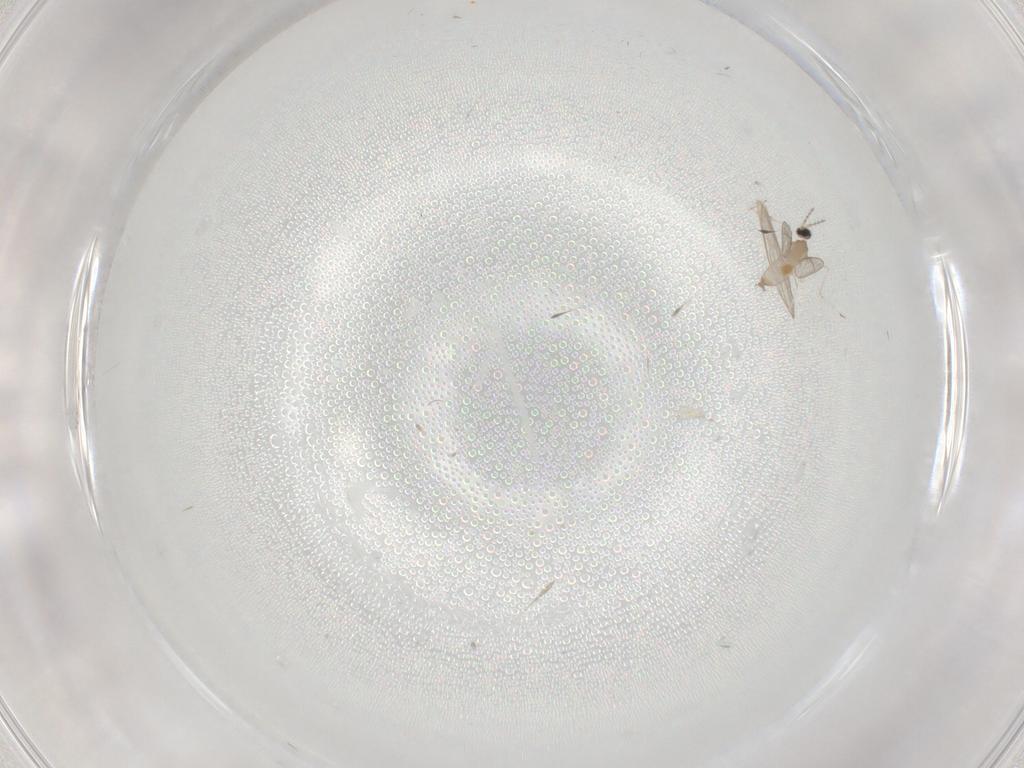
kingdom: Animalia
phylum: Arthropoda
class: Insecta
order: Diptera
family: Cecidomyiidae
